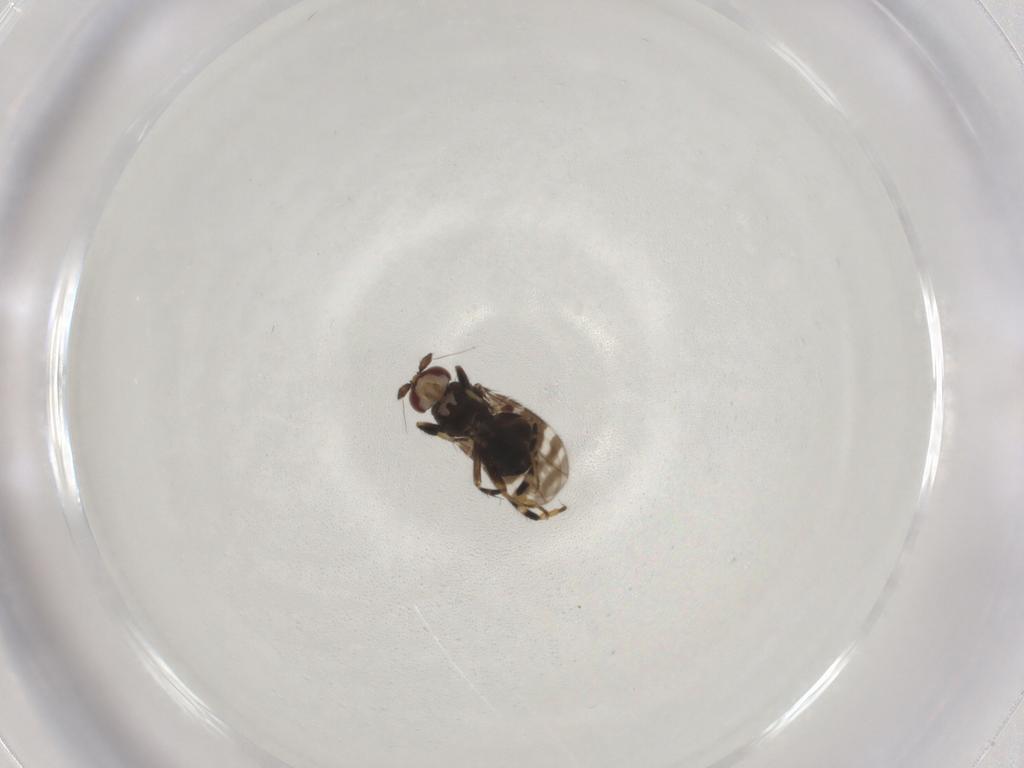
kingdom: Animalia
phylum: Arthropoda
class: Insecta
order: Diptera
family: Sphaeroceridae
